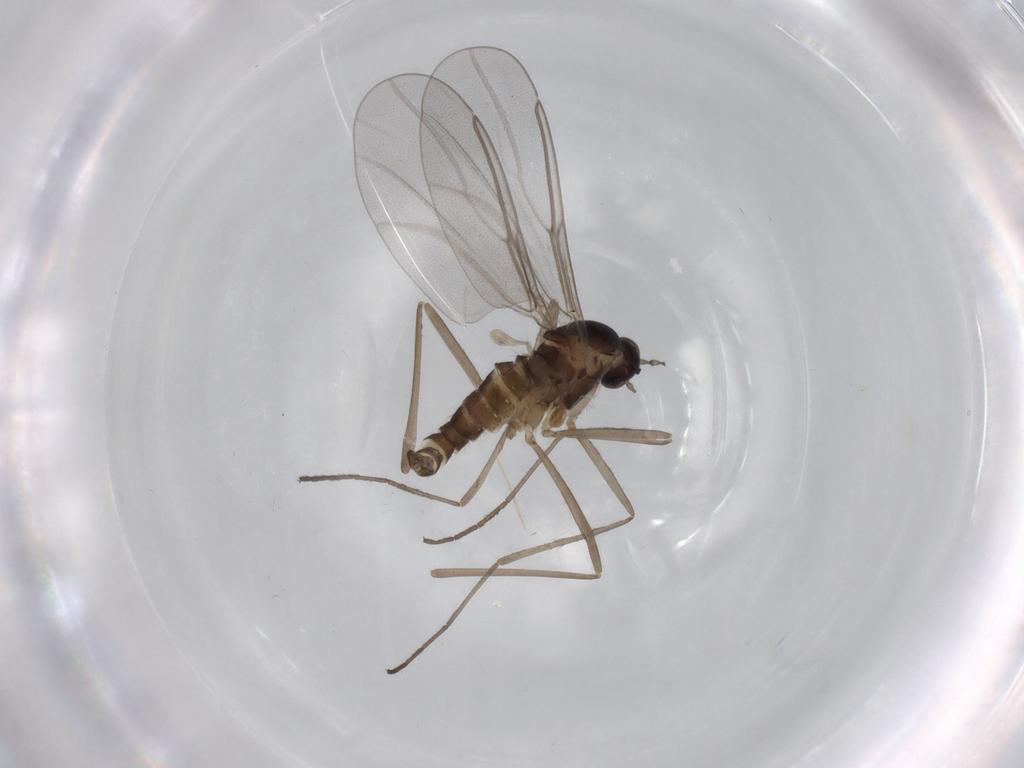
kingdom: Animalia
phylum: Arthropoda
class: Insecta
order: Diptera
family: Cecidomyiidae
